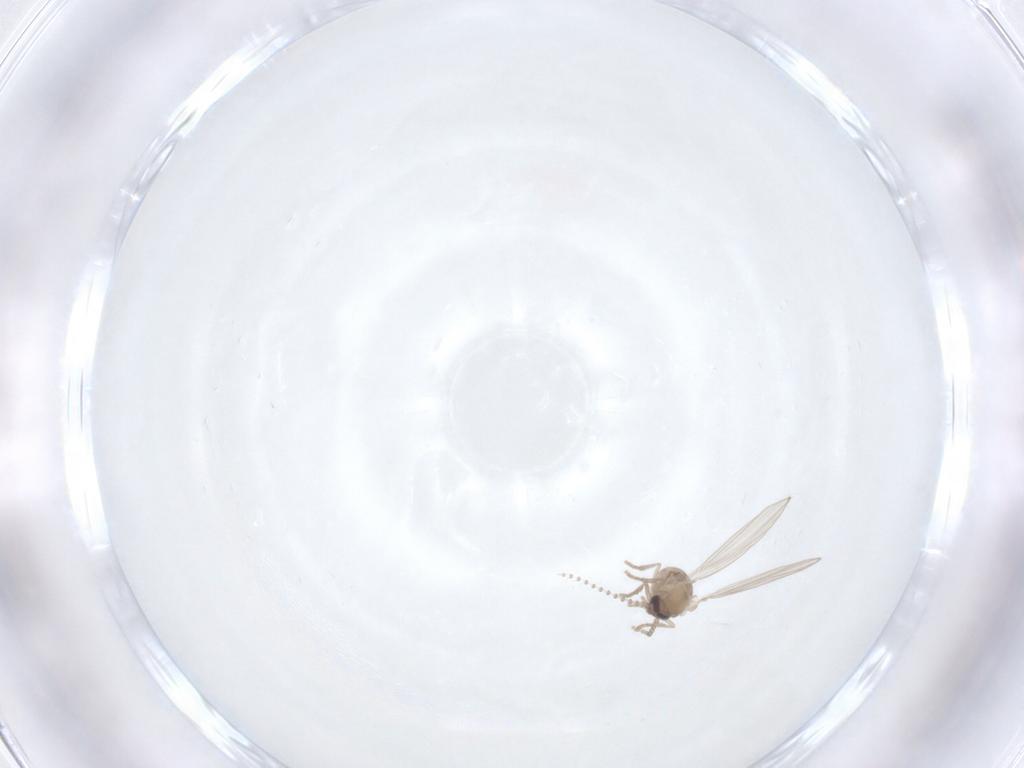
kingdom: Animalia
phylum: Arthropoda
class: Insecta
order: Diptera
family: Psychodidae
